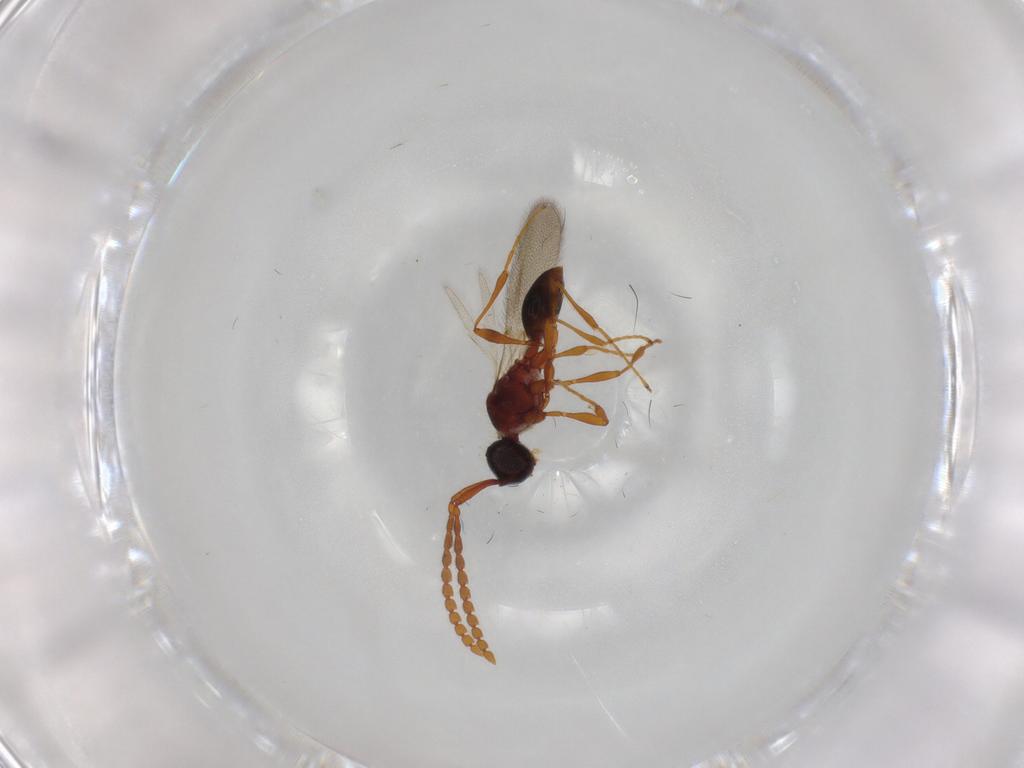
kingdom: Animalia
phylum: Arthropoda
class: Insecta
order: Hymenoptera
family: Diapriidae
